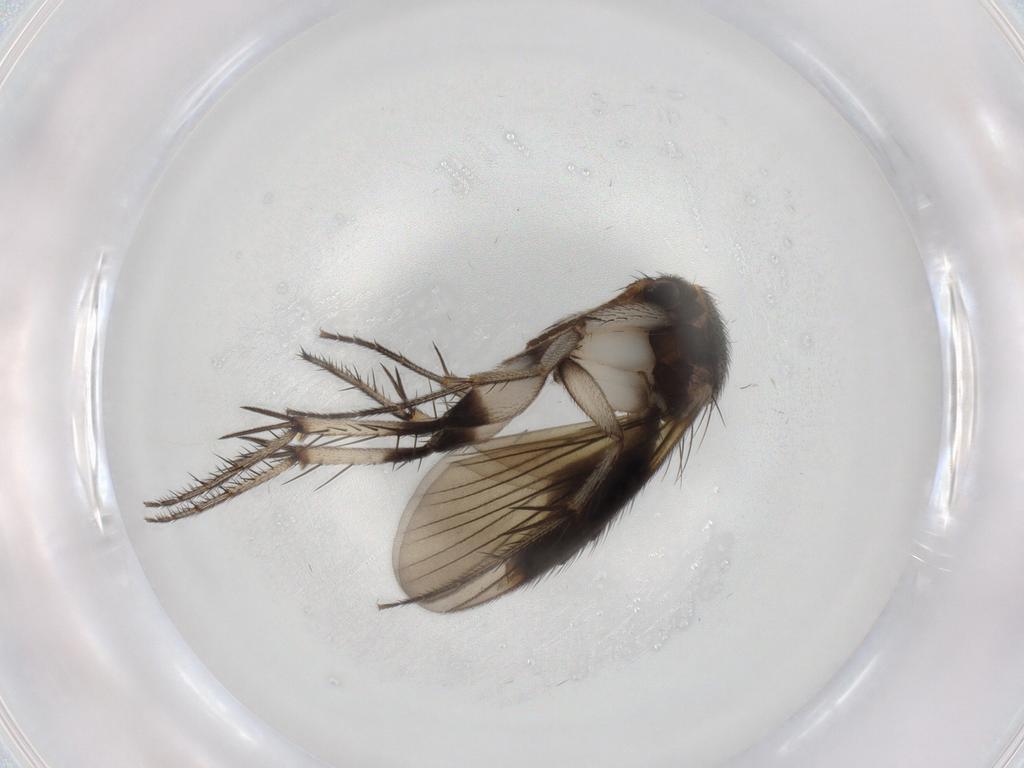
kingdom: Animalia
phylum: Arthropoda
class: Insecta
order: Diptera
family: Mycetophilidae
